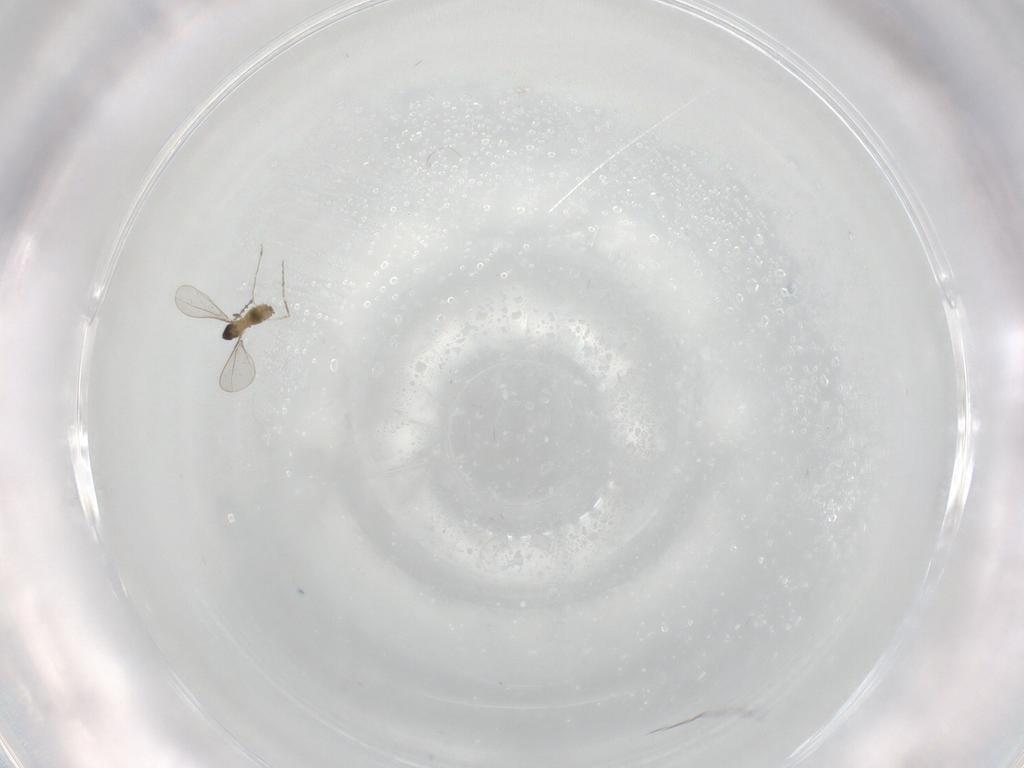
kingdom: Animalia
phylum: Arthropoda
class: Insecta
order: Diptera
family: Cecidomyiidae
